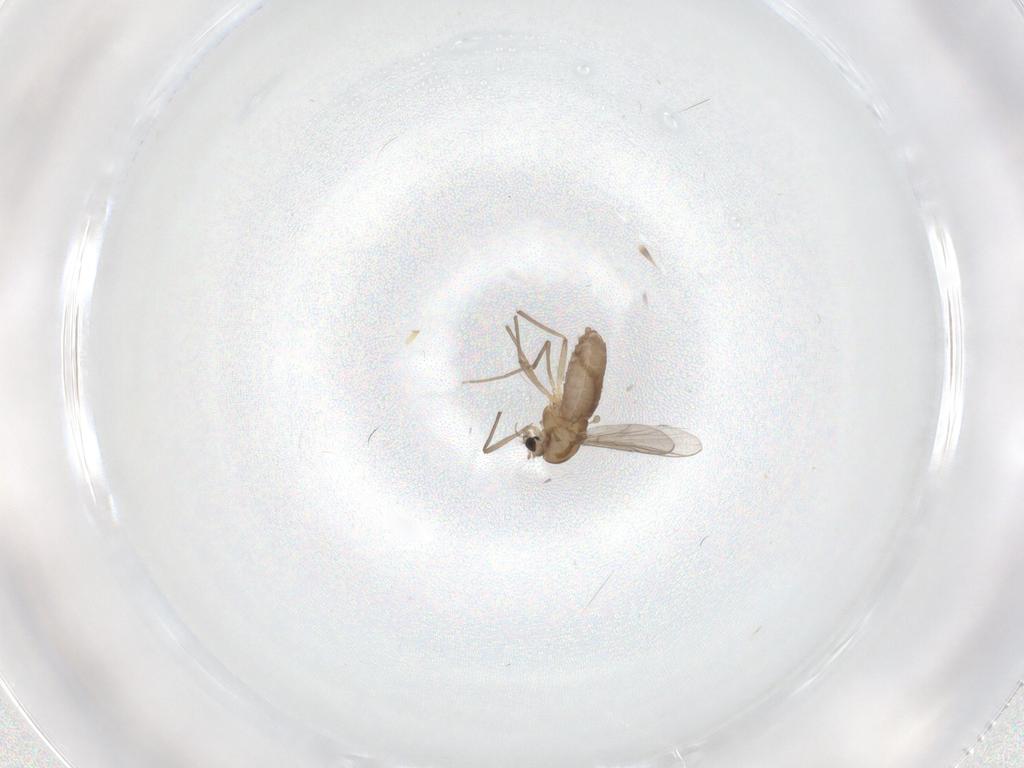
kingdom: Animalia
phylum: Arthropoda
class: Insecta
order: Diptera
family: Chironomidae
